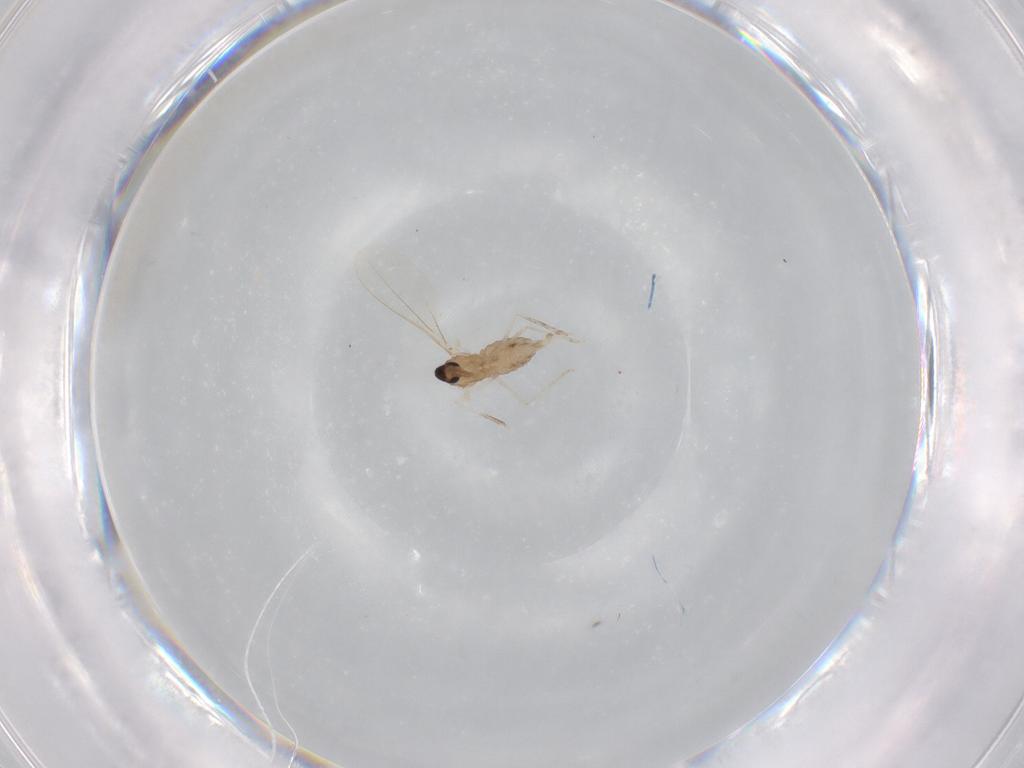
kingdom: Animalia
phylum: Arthropoda
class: Insecta
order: Diptera
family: Cecidomyiidae
